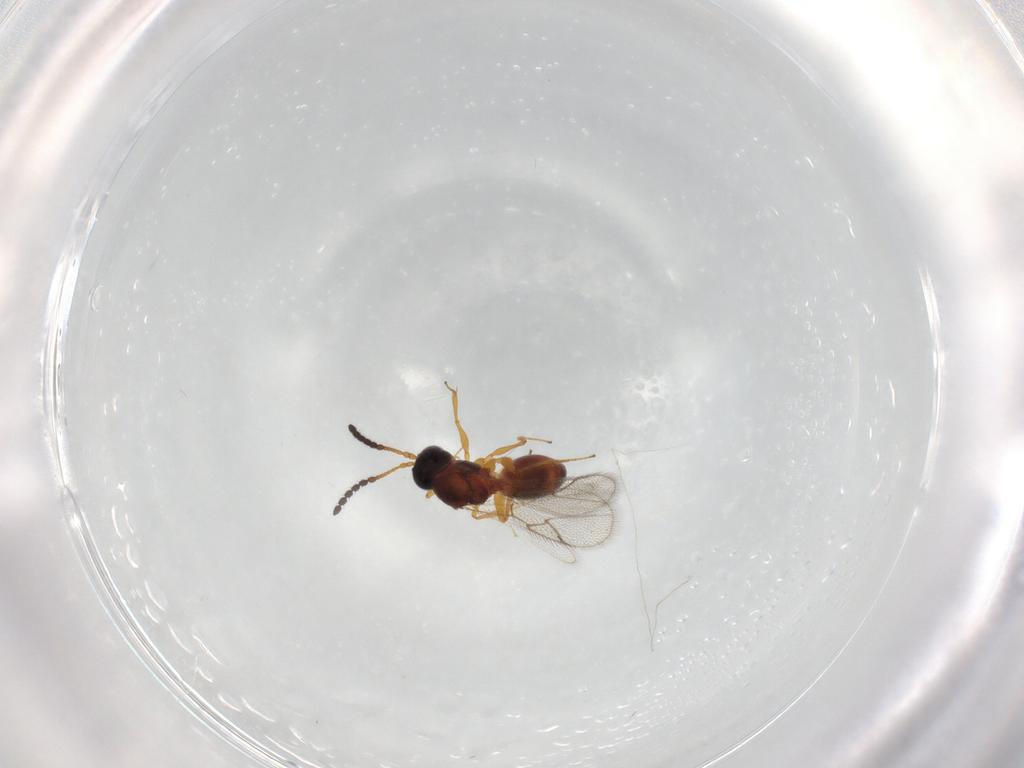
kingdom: Animalia
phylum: Arthropoda
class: Insecta
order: Hymenoptera
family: Cynipidae
